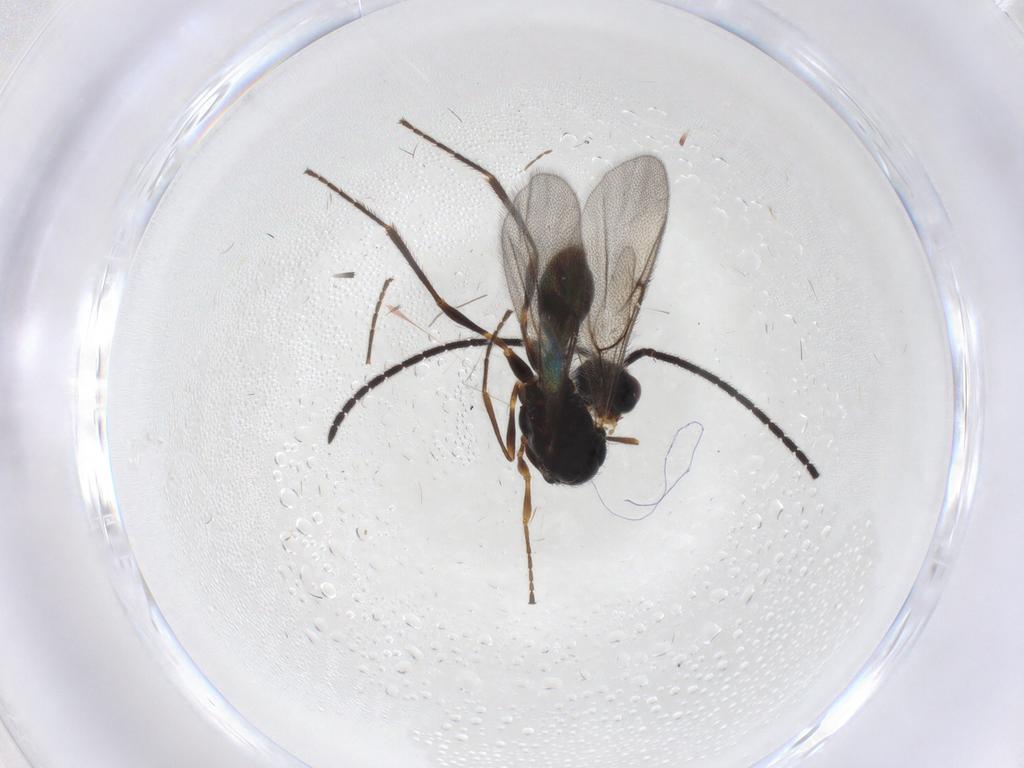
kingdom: Animalia
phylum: Arthropoda
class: Insecta
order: Hymenoptera
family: Diapriidae
